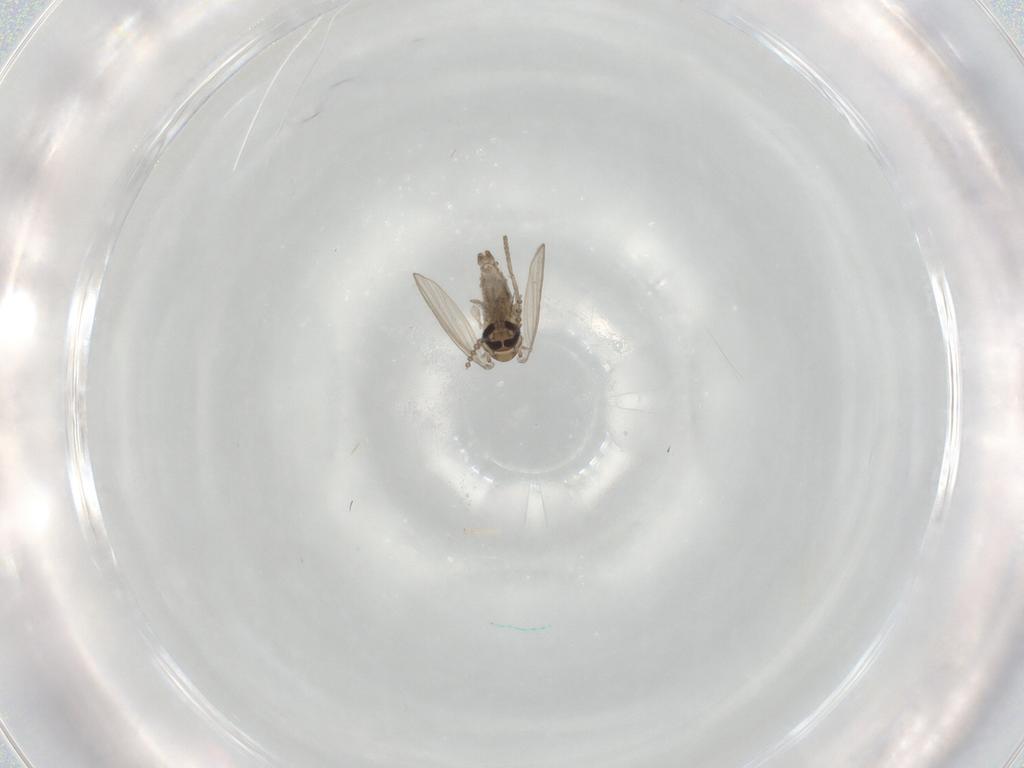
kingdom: Animalia
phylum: Arthropoda
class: Insecta
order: Diptera
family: Psychodidae
